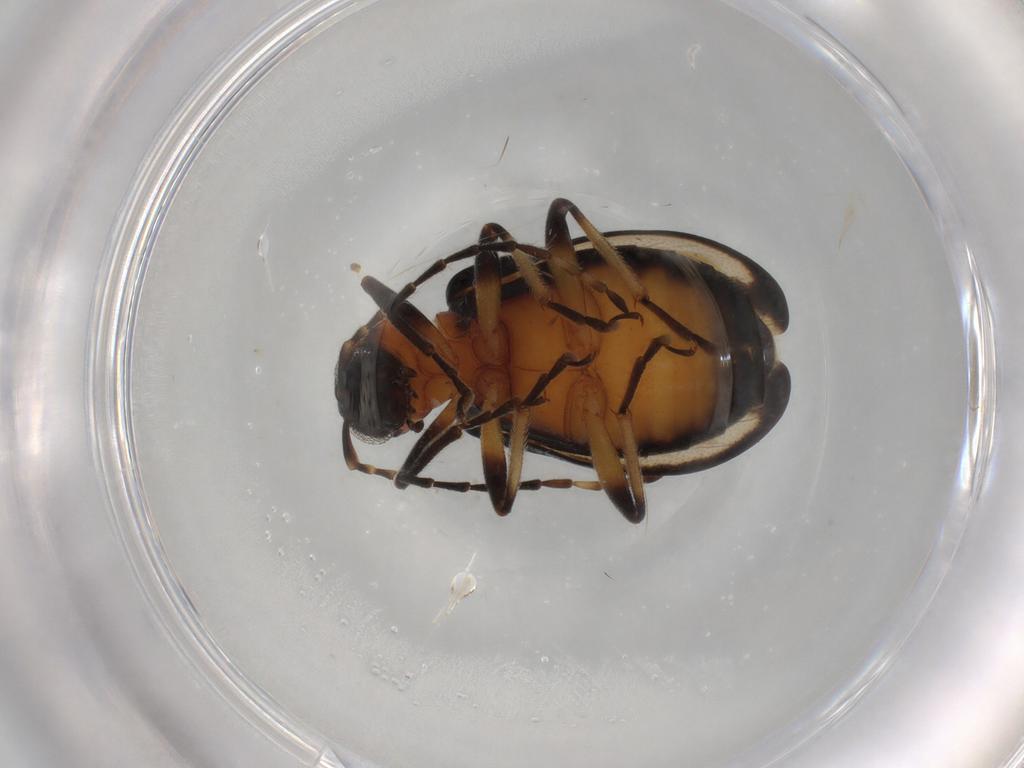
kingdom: Animalia
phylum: Arthropoda
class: Insecta
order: Coleoptera
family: Chrysomelidae
